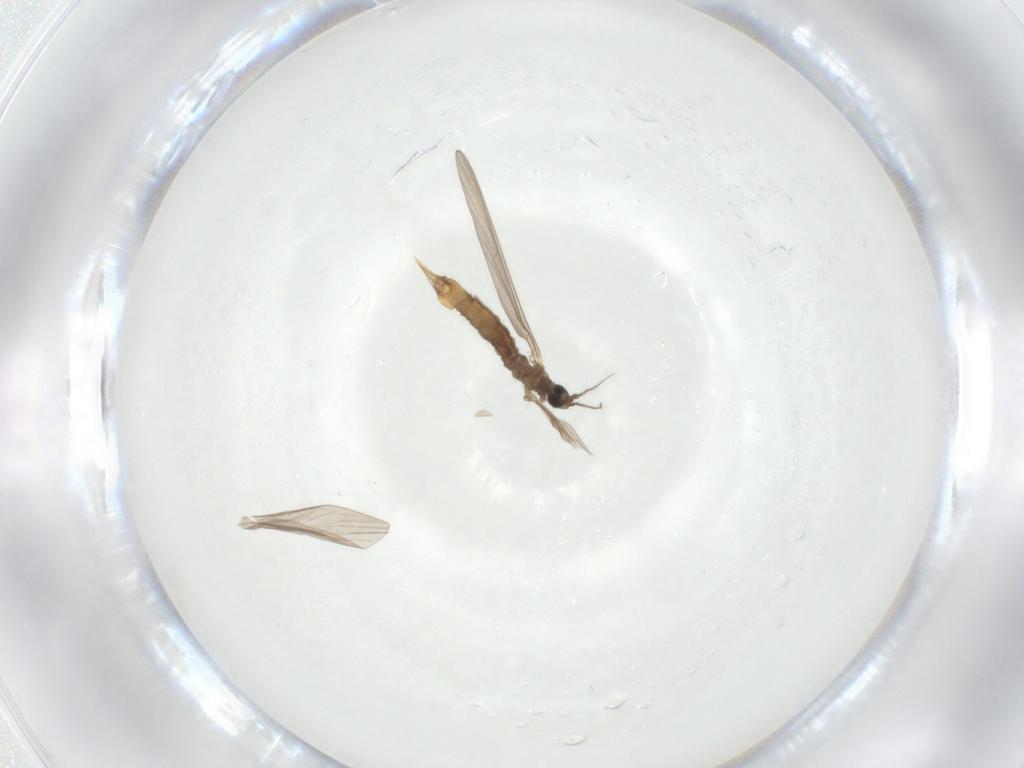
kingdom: Animalia
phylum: Arthropoda
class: Insecta
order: Diptera
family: Limoniidae
